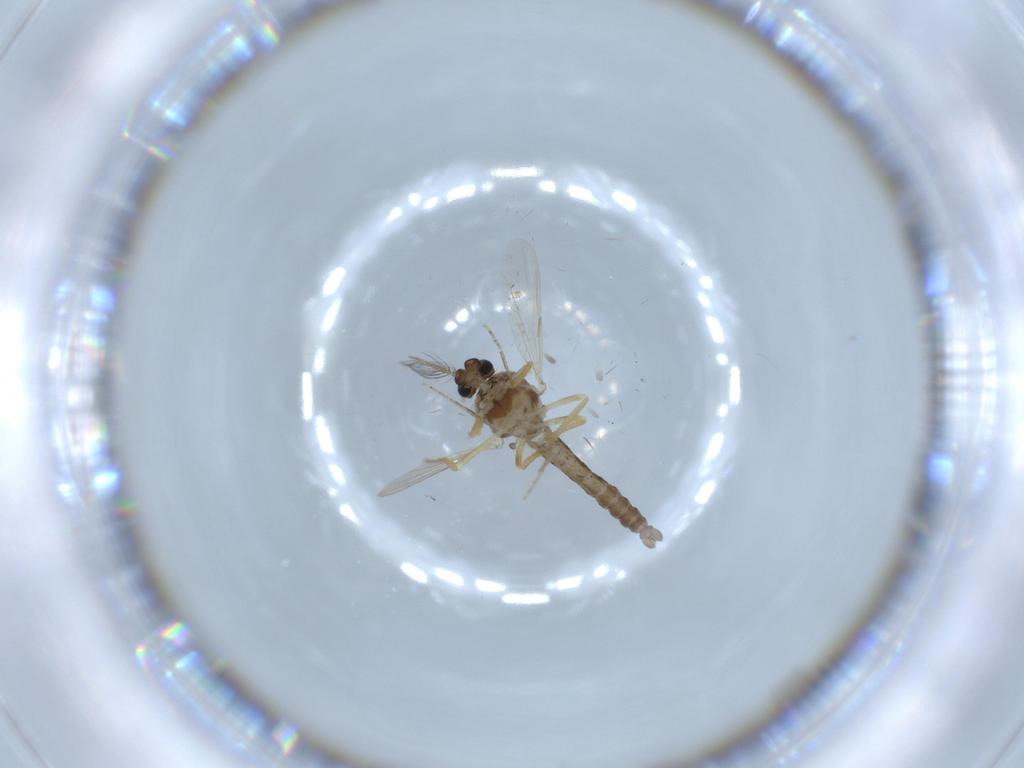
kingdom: Animalia
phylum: Arthropoda
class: Insecta
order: Diptera
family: Ceratopogonidae
